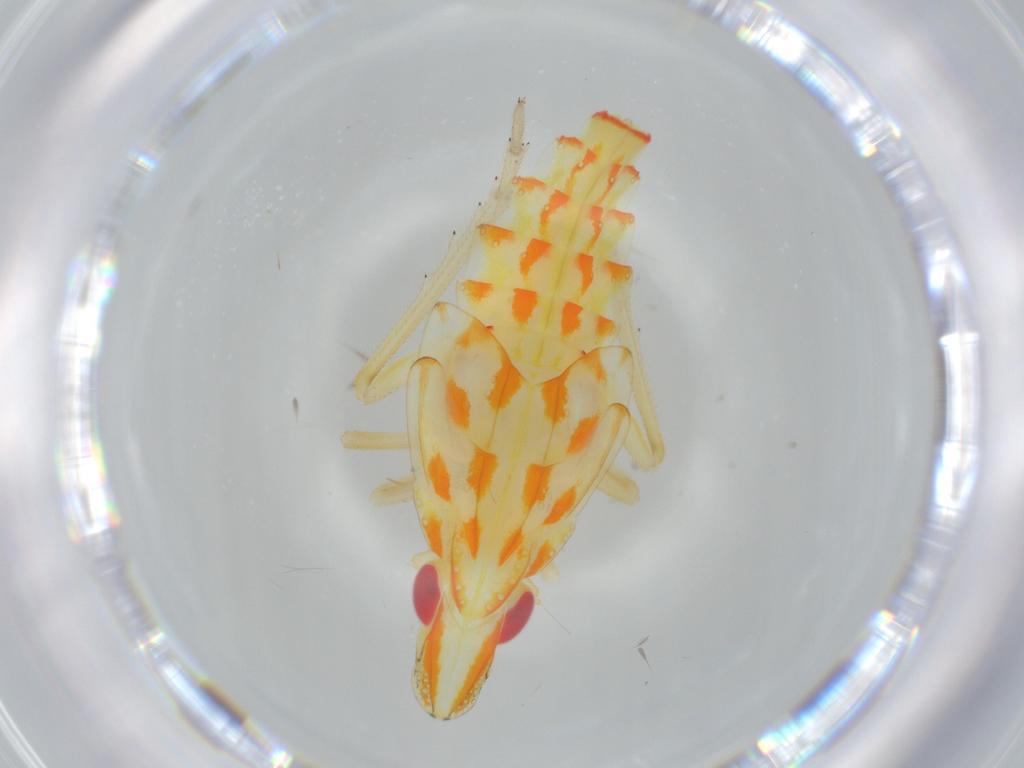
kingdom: Animalia
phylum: Arthropoda
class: Insecta
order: Hemiptera
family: Tropiduchidae
